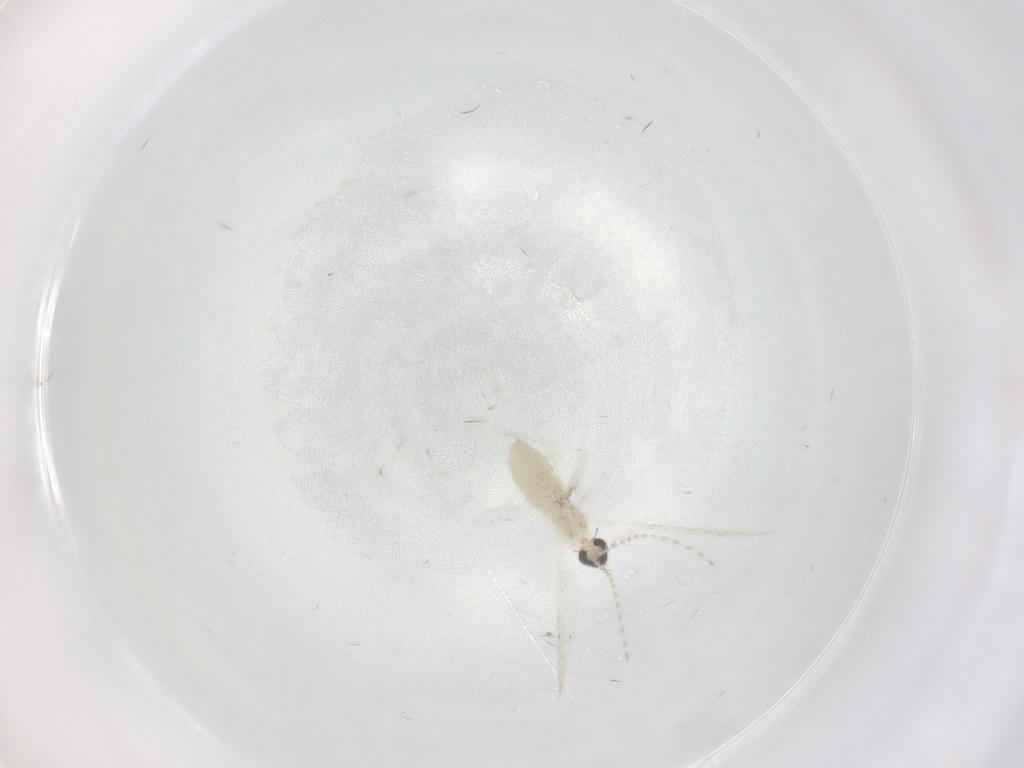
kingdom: Animalia
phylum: Arthropoda
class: Insecta
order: Diptera
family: Cecidomyiidae
